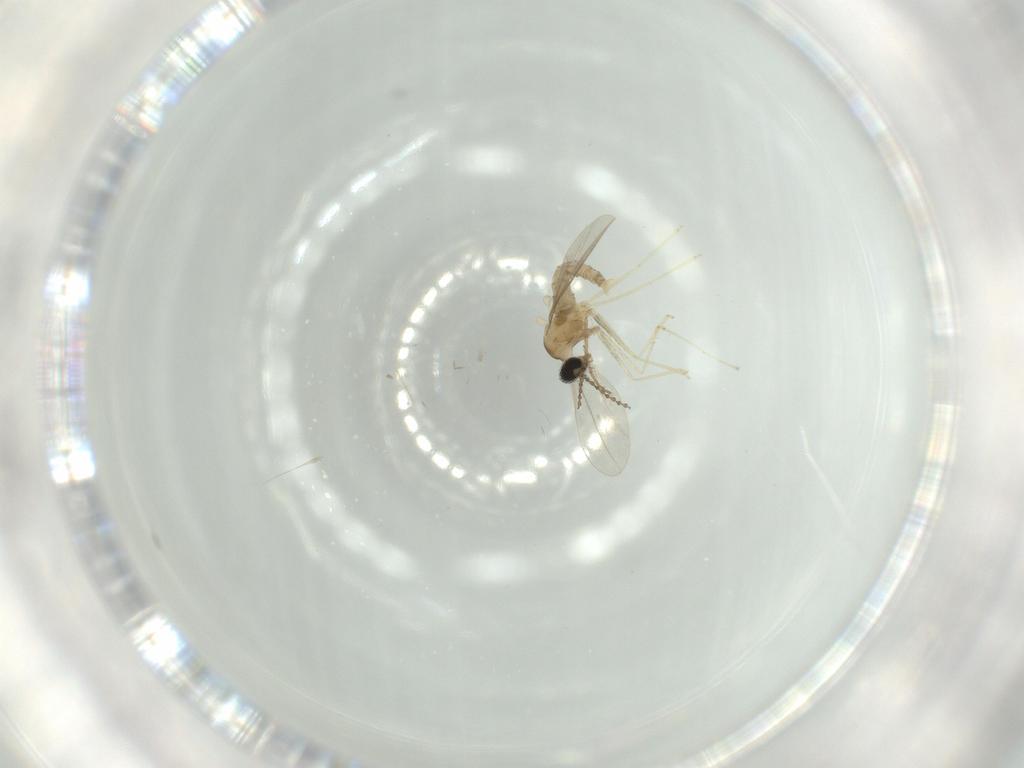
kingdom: Animalia
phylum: Arthropoda
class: Insecta
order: Diptera
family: Cecidomyiidae
